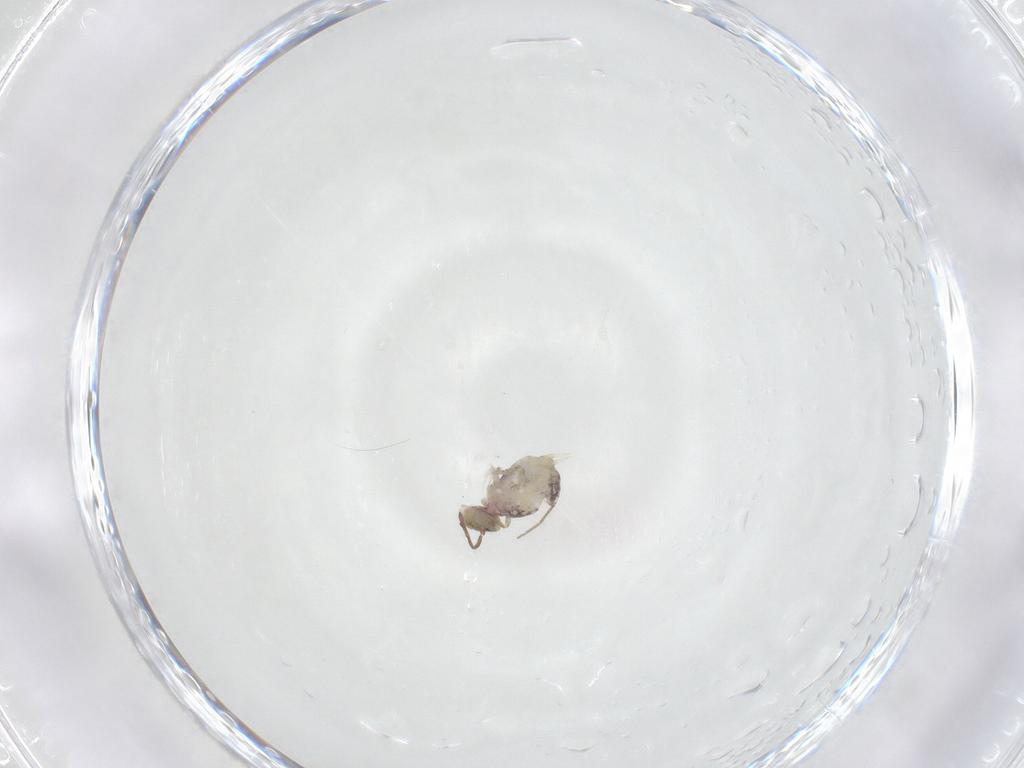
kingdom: Animalia
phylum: Arthropoda
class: Collembola
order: Symphypleona
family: Dicyrtomidae
